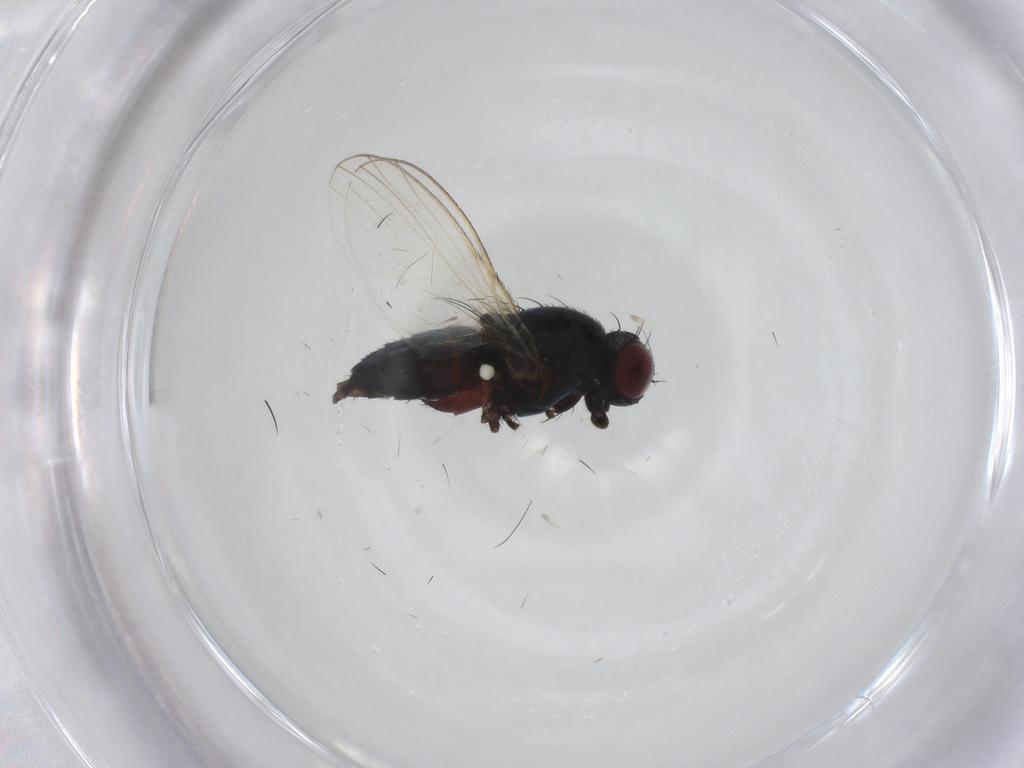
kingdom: Animalia
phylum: Arthropoda
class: Insecta
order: Diptera
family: Carnidae
